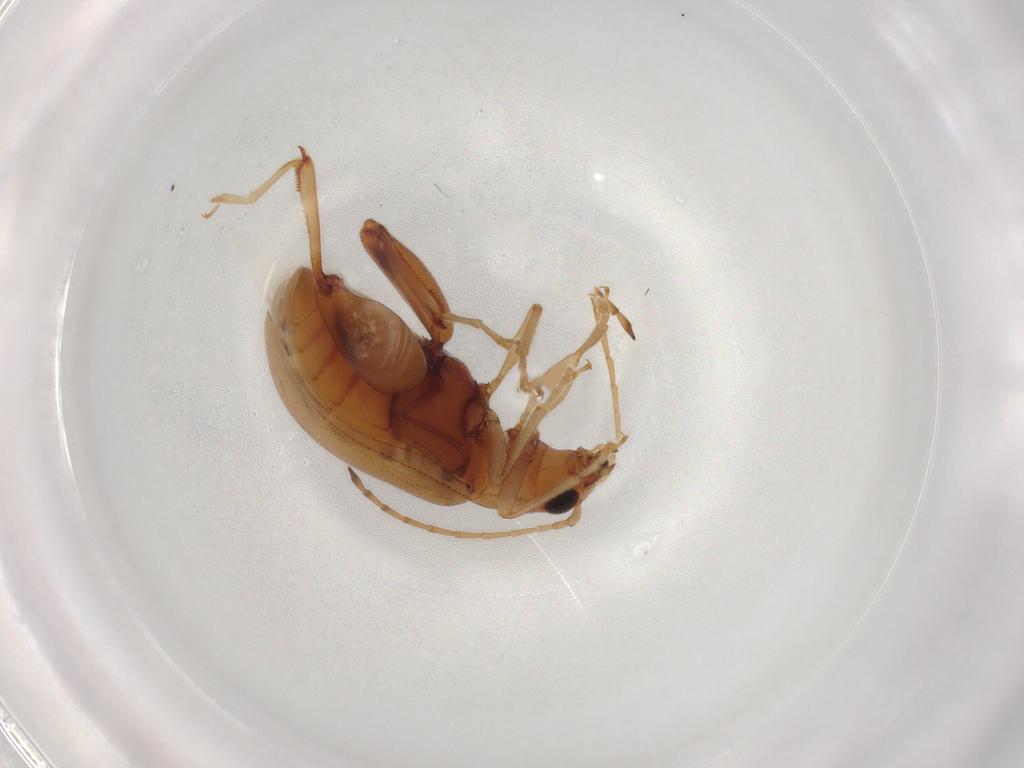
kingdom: Animalia
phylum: Arthropoda
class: Insecta
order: Coleoptera
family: Chrysomelidae
